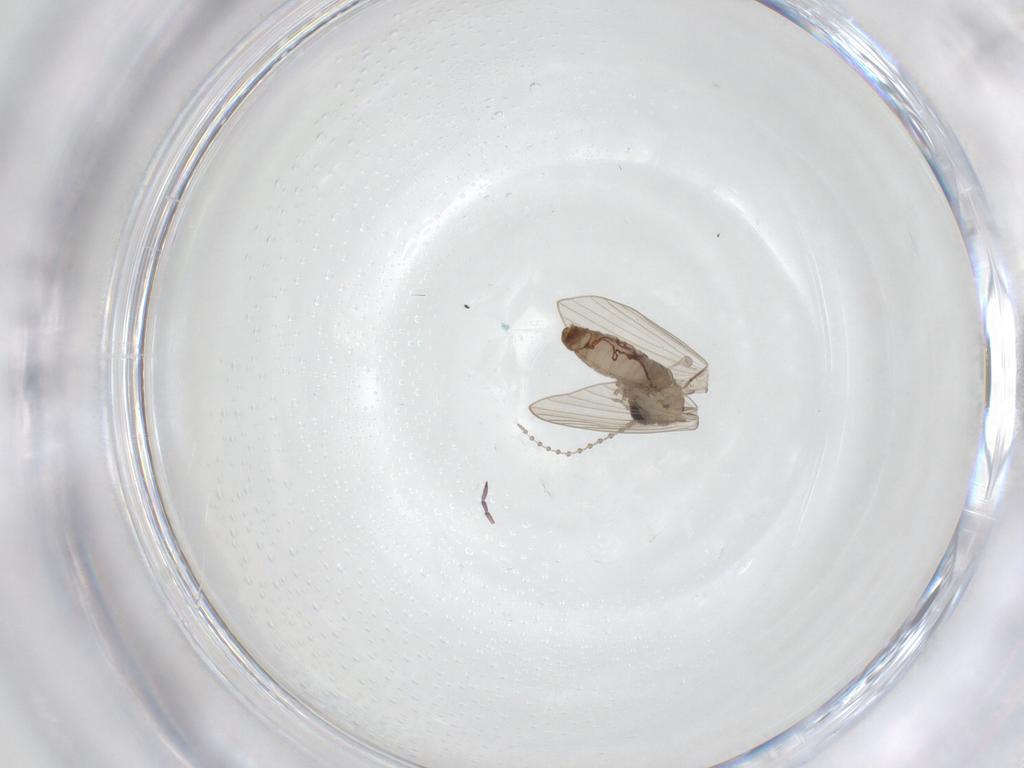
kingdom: Animalia
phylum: Arthropoda
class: Insecta
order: Diptera
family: Psychodidae
